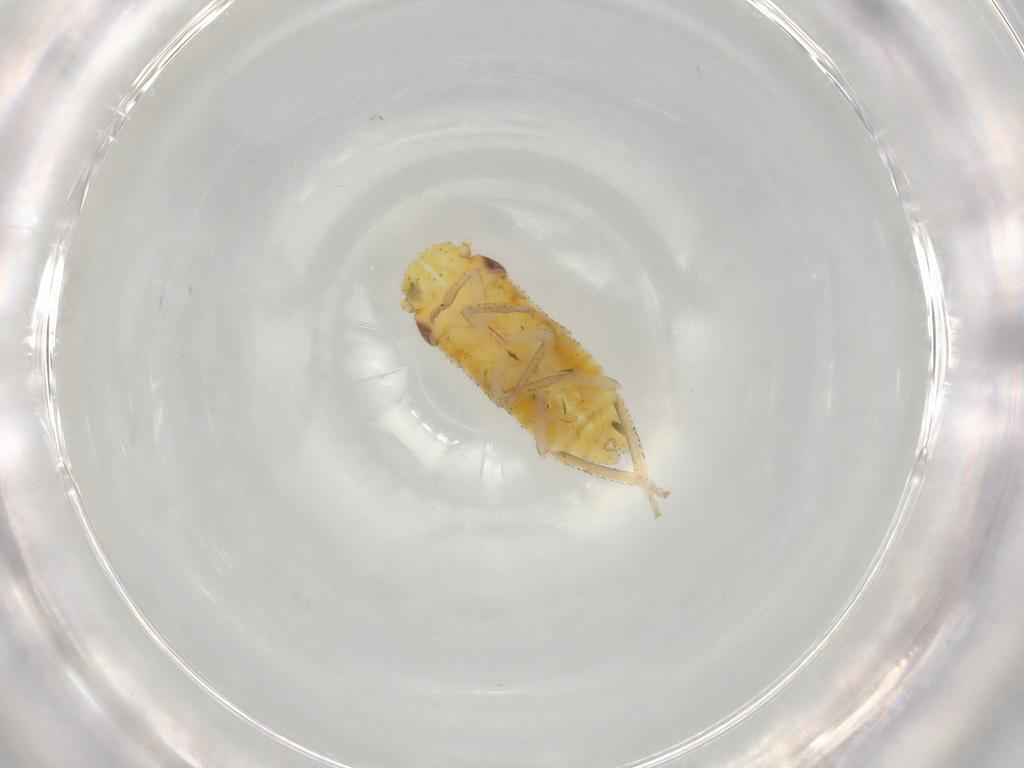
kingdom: Animalia
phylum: Arthropoda
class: Insecta
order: Hemiptera
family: Cicadellidae
